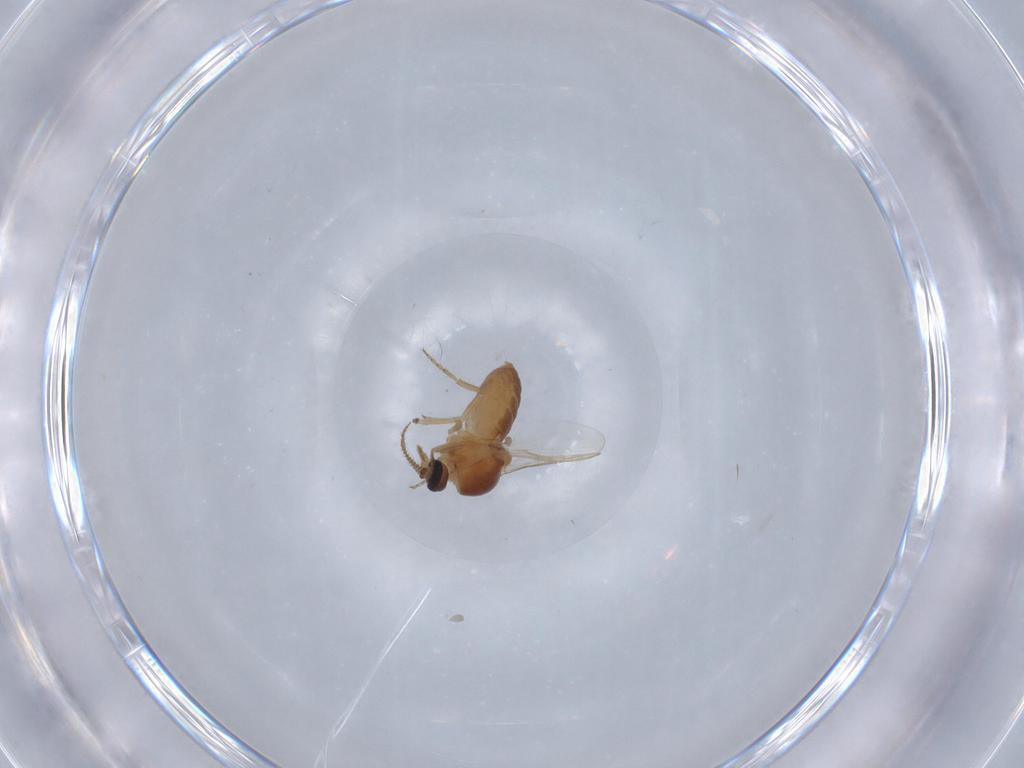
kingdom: Animalia
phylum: Arthropoda
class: Insecta
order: Diptera
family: Ceratopogonidae
